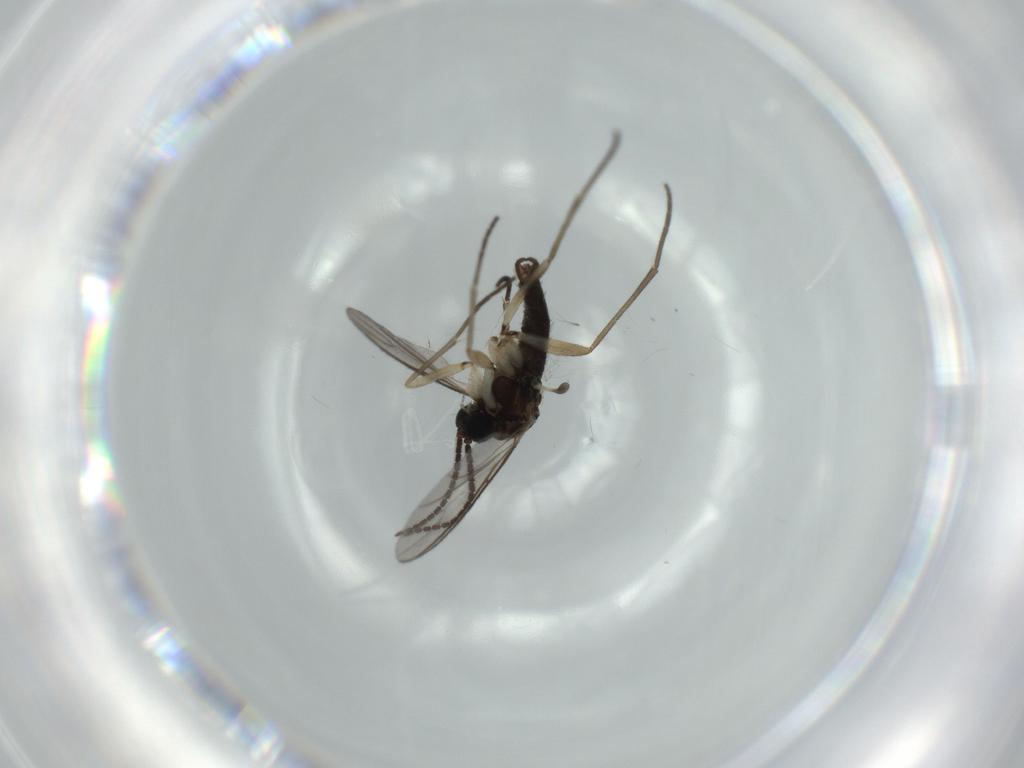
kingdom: Animalia
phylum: Arthropoda
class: Insecta
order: Diptera
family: Sciaridae
